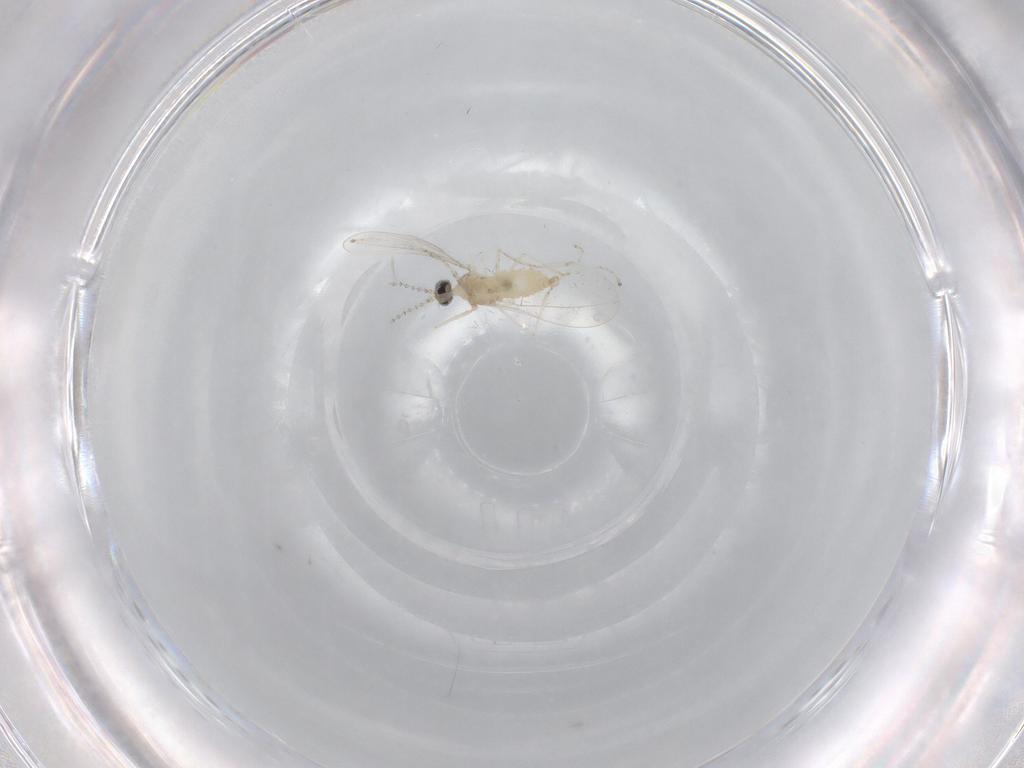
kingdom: Animalia
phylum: Arthropoda
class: Insecta
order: Diptera
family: Cecidomyiidae
